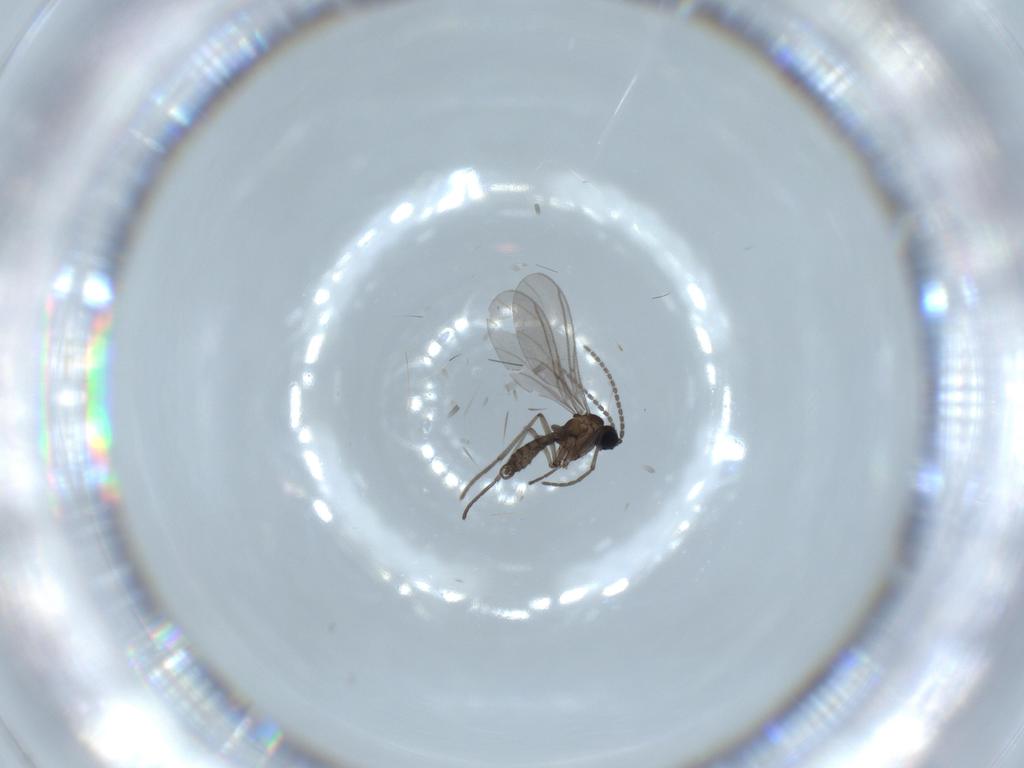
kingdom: Animalia
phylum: Arthropoda
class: Insecta
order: Diptera
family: Sciaridae
